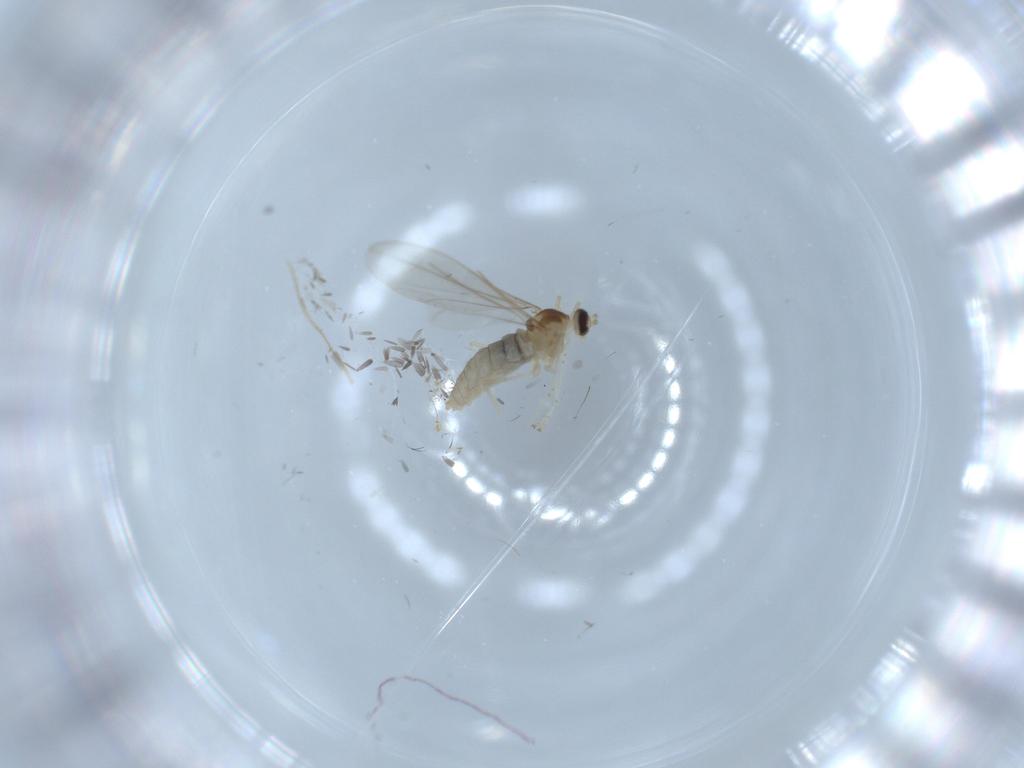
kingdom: Animalia
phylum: Arthropoda
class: Insecta
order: Diptera
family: Cecidomyiidae
